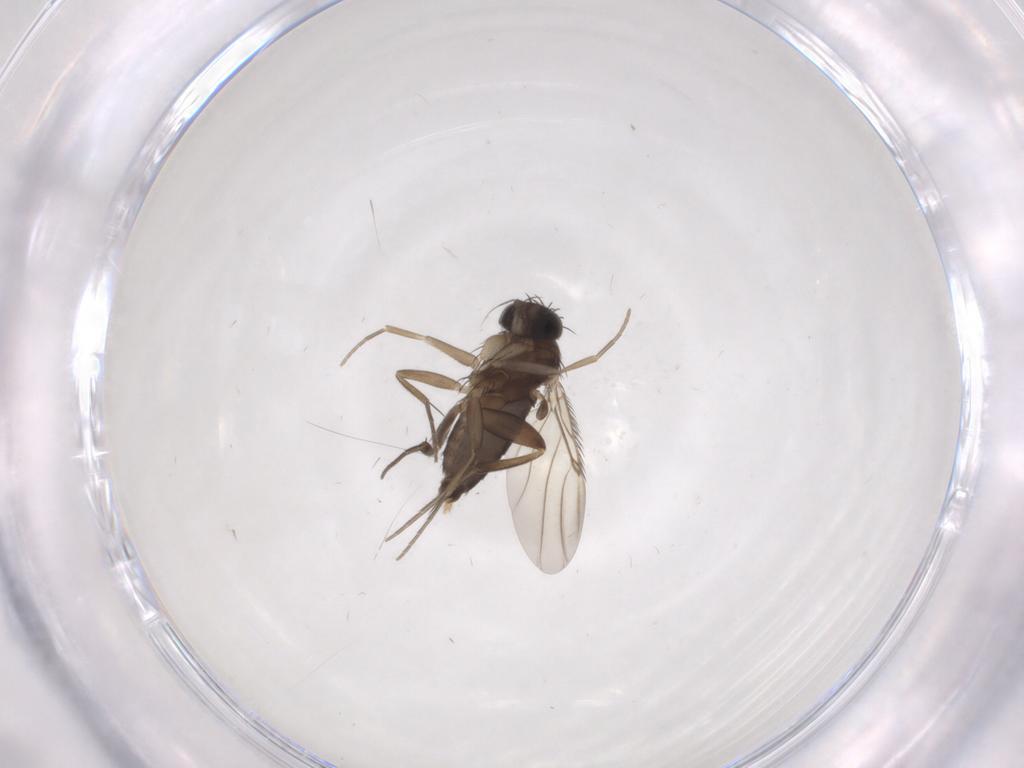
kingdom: Animalia
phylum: Arthropoda
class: Insecta
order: Diptera
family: Phoridae
